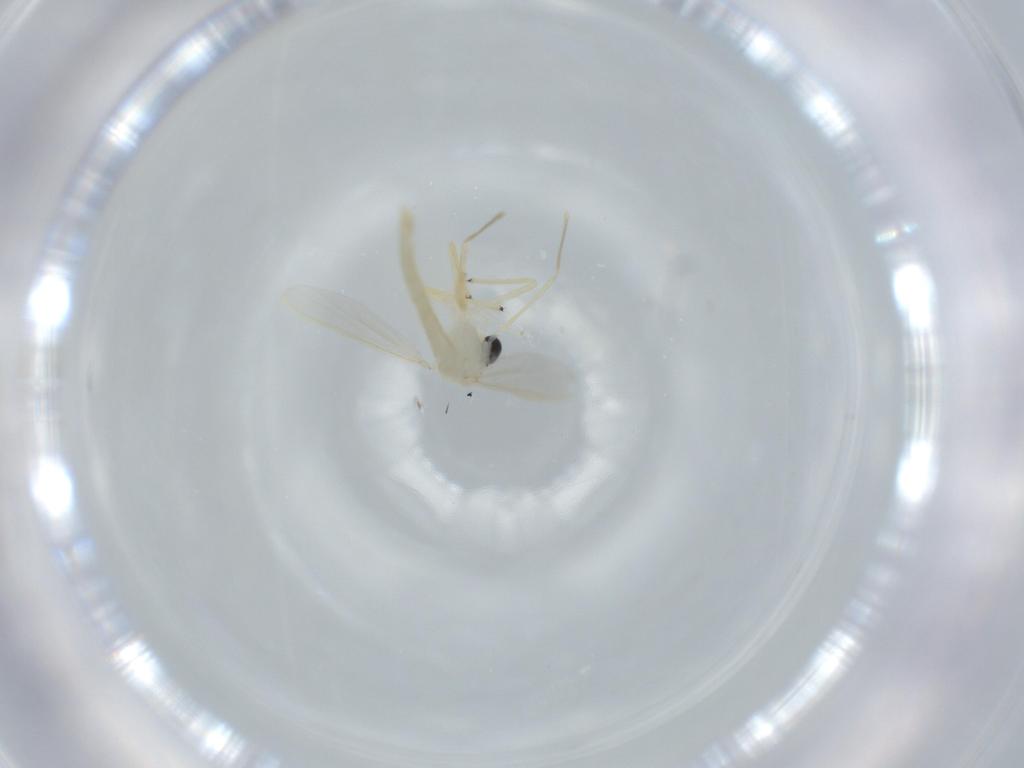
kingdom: Animalia
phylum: Arthropoda
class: Insecta
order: Diptera
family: Chironomidae
